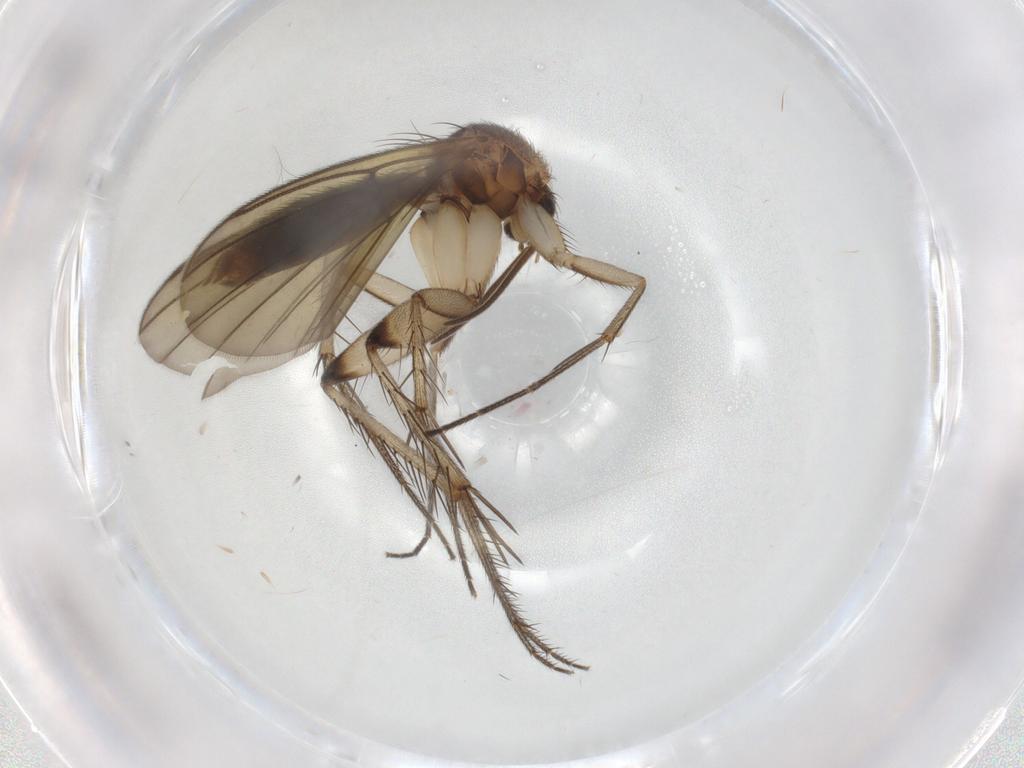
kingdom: Animalia
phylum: Arthropoda
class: Insecta
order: Diptera
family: Mycetophilidae
